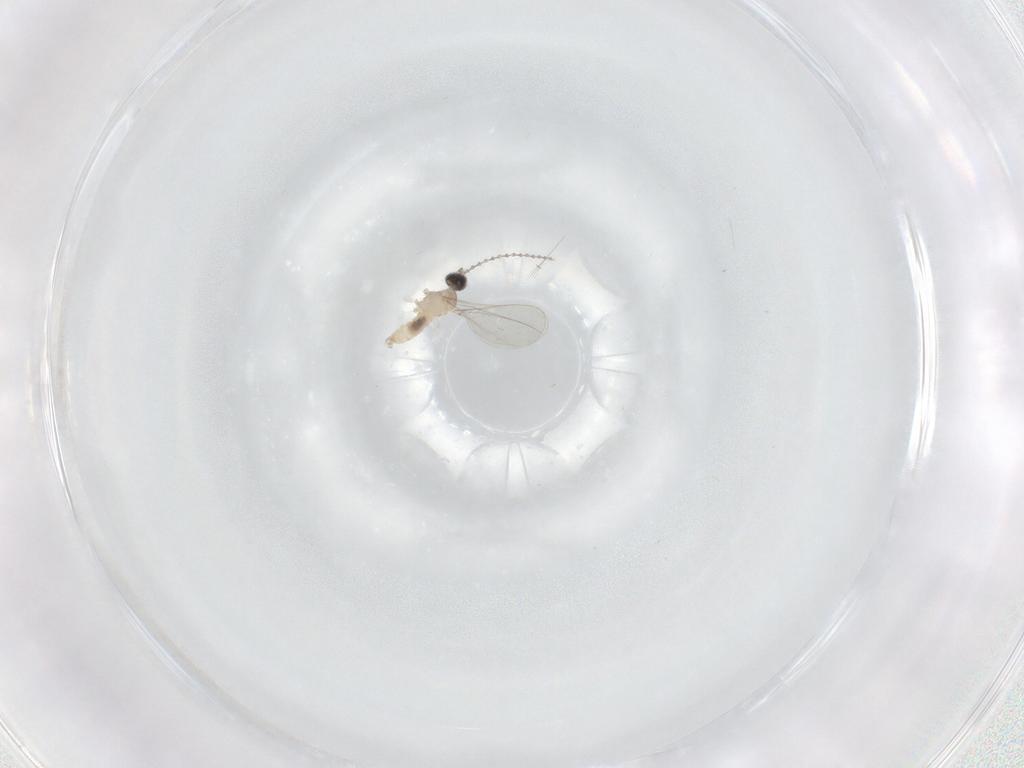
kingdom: Animalia
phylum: Arthropoda
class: Insecta
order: Diptera
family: Cecidomyiidae
